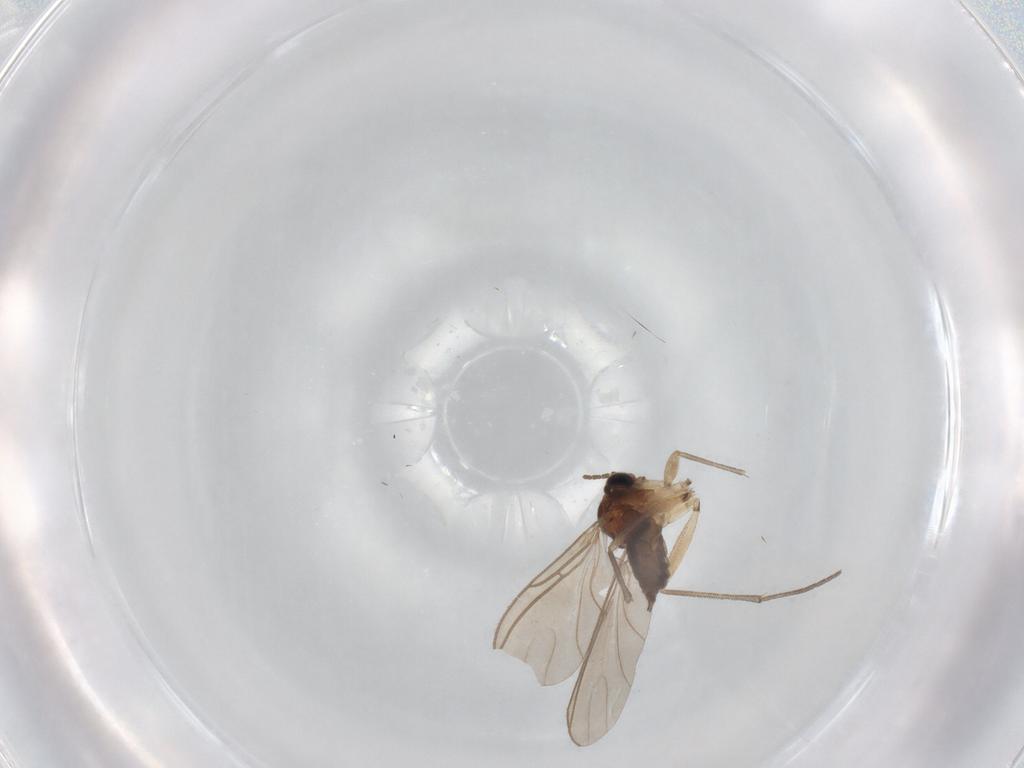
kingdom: Animalia
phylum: Arthropoda
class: Insecta
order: Diptera
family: Sciaridae
